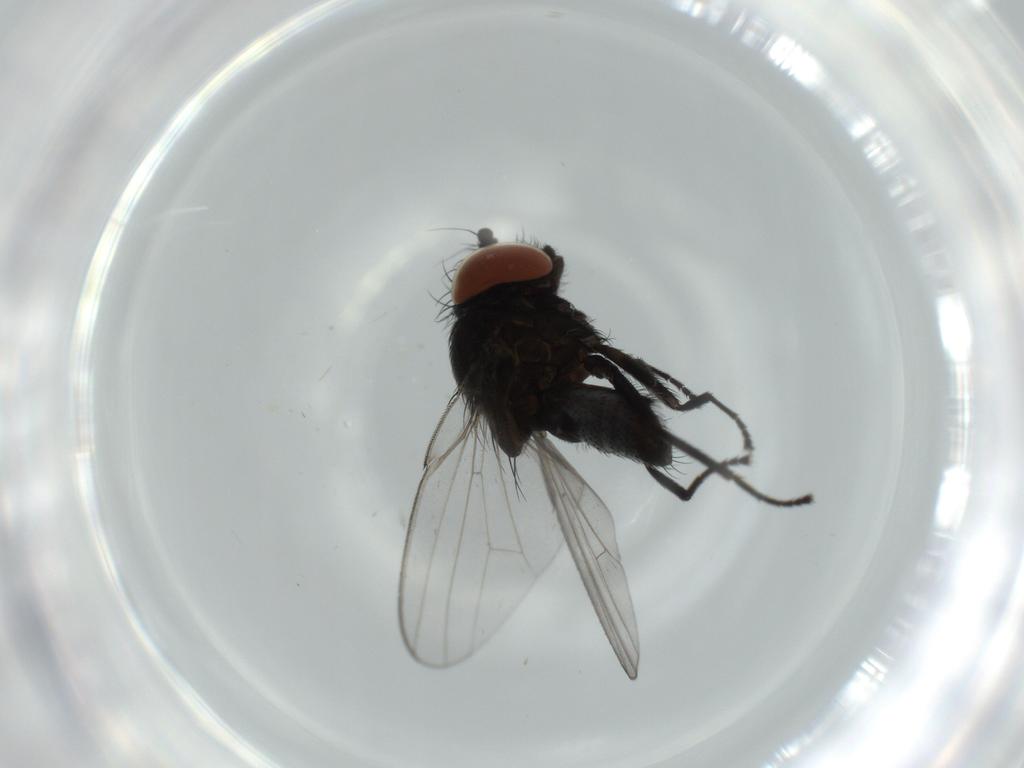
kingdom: Animalia
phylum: Arthropoda
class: Insecta
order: Diptera
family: Milichiidae
